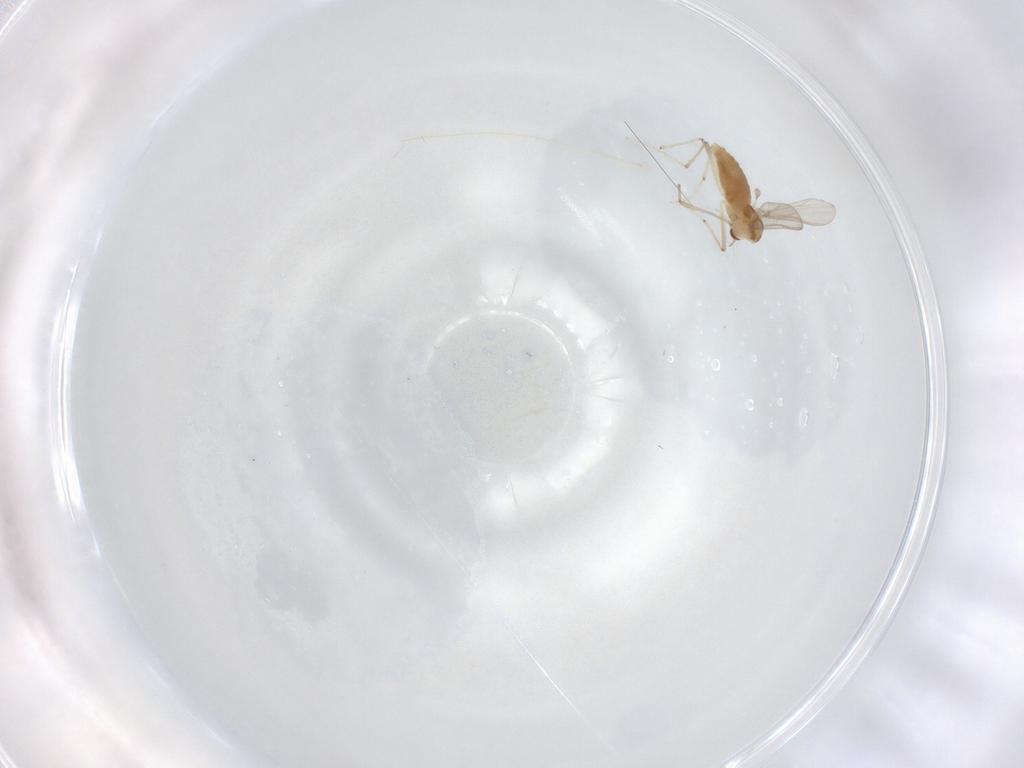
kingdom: Animalia
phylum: Arthropoda
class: Insecta
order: Diptera
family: Chironomidae
